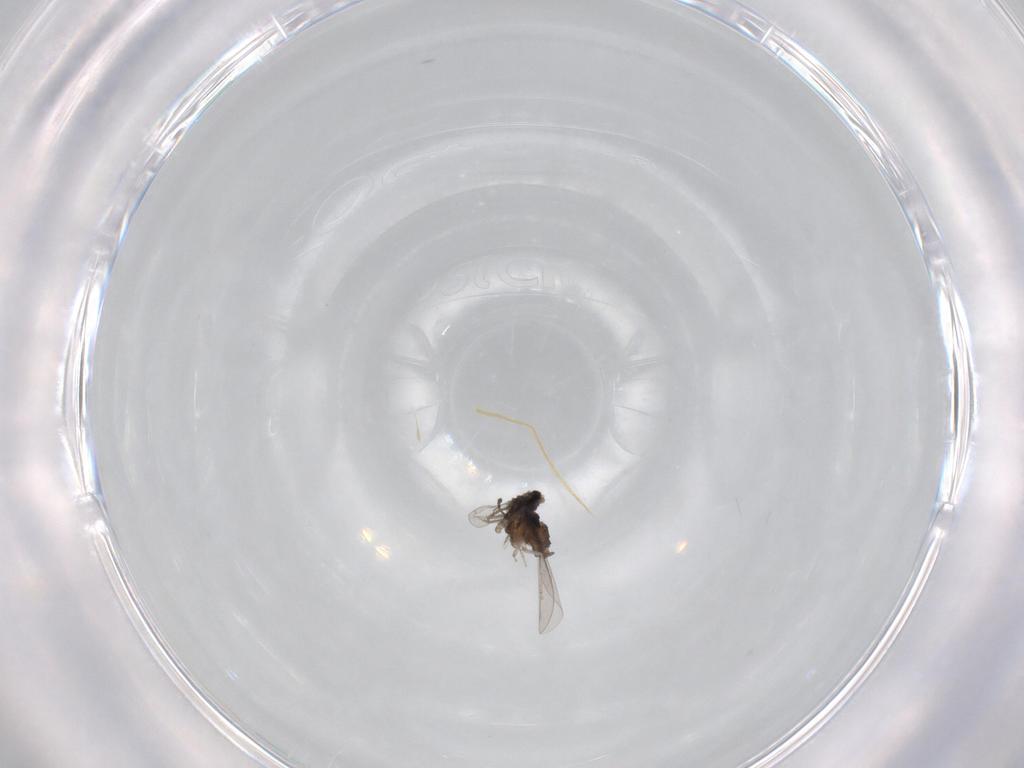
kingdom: Animalia
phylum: Arthropoda
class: Insecta
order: Diptera
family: Cecidomyiidae
